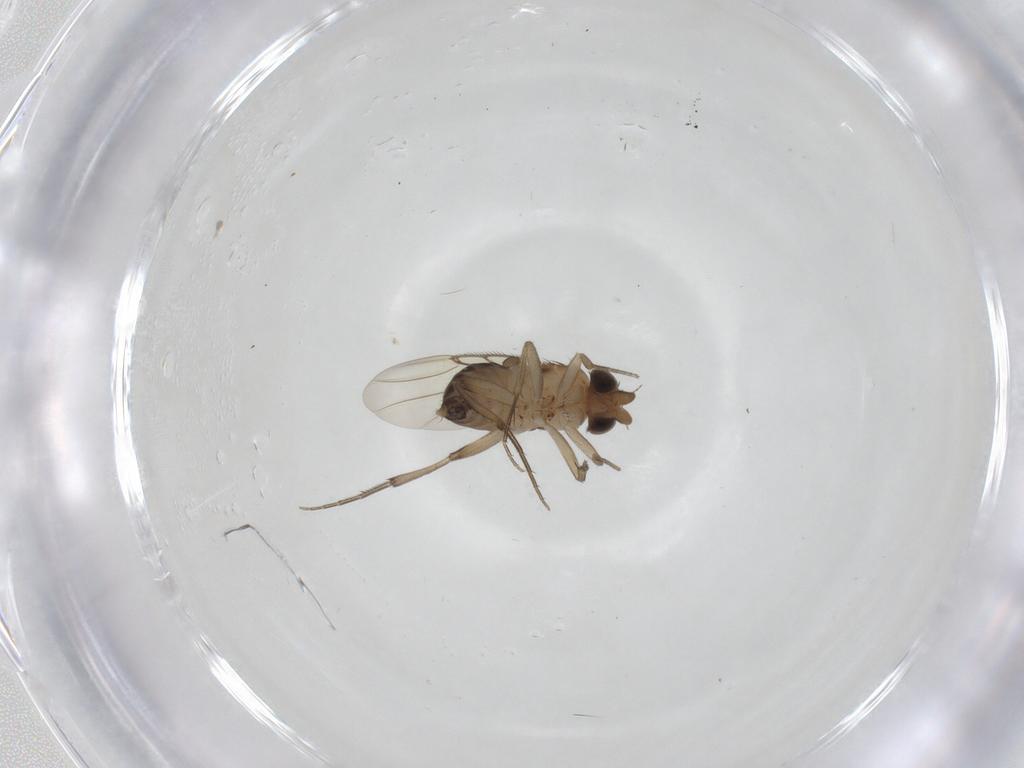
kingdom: Animalia
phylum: Arthropoda
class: Insecta
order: Diptera
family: Phoridae
